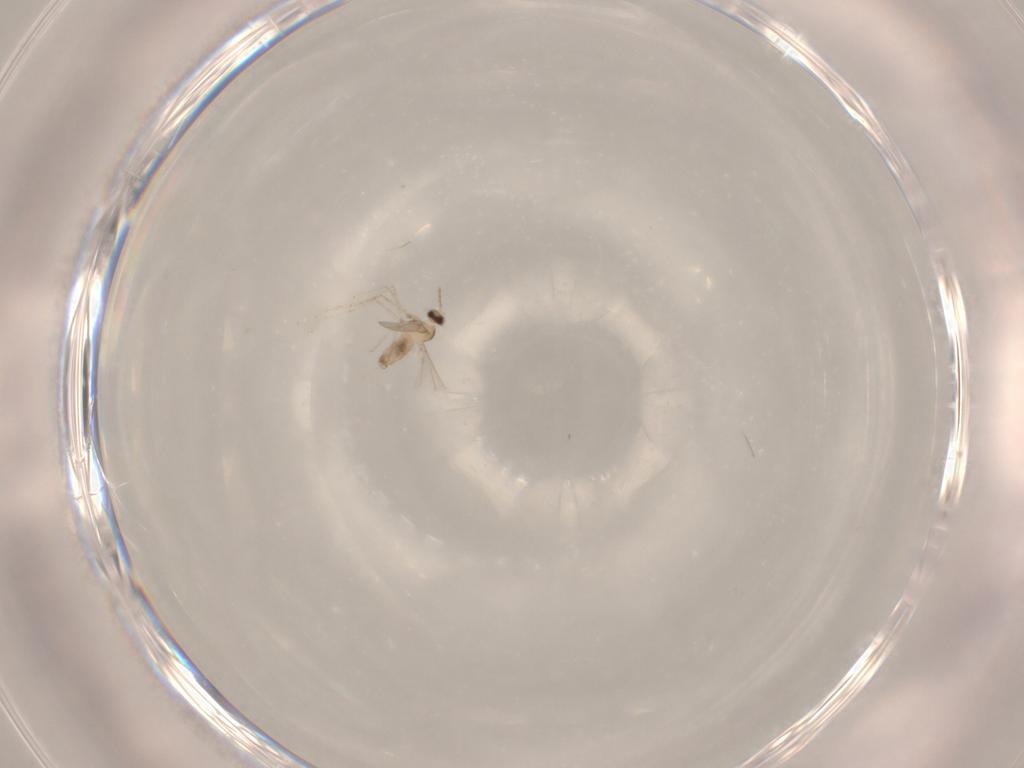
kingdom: Animalia
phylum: Arthropoda
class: Insecta
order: Diptera
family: Cecidomyiidae
